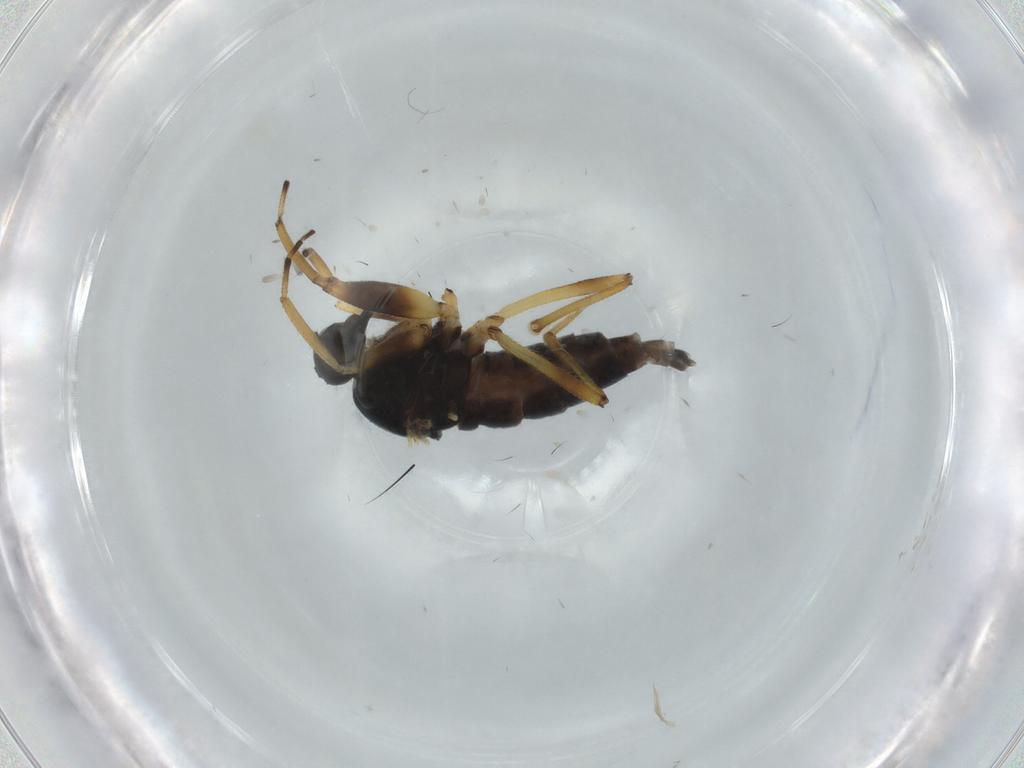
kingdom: Animalia
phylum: Arthropoda
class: Insecta
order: Diptera
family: Hybotidae
